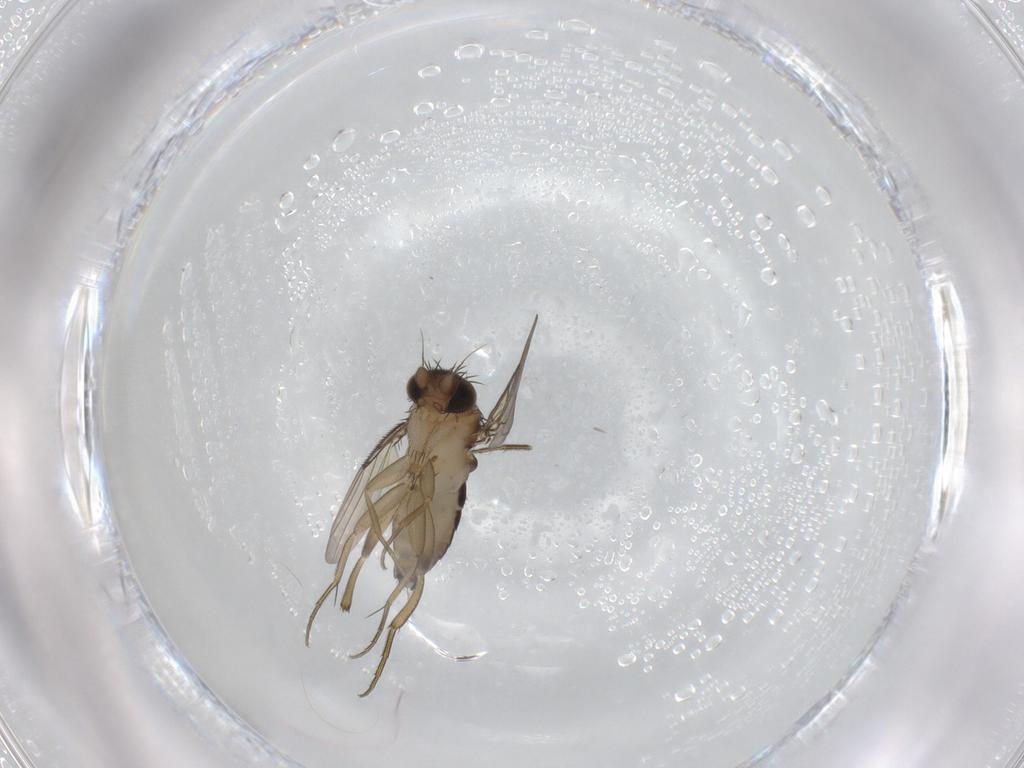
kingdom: Animalia
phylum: Arthropoda
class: Insecta
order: Diptera
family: Phoridae
